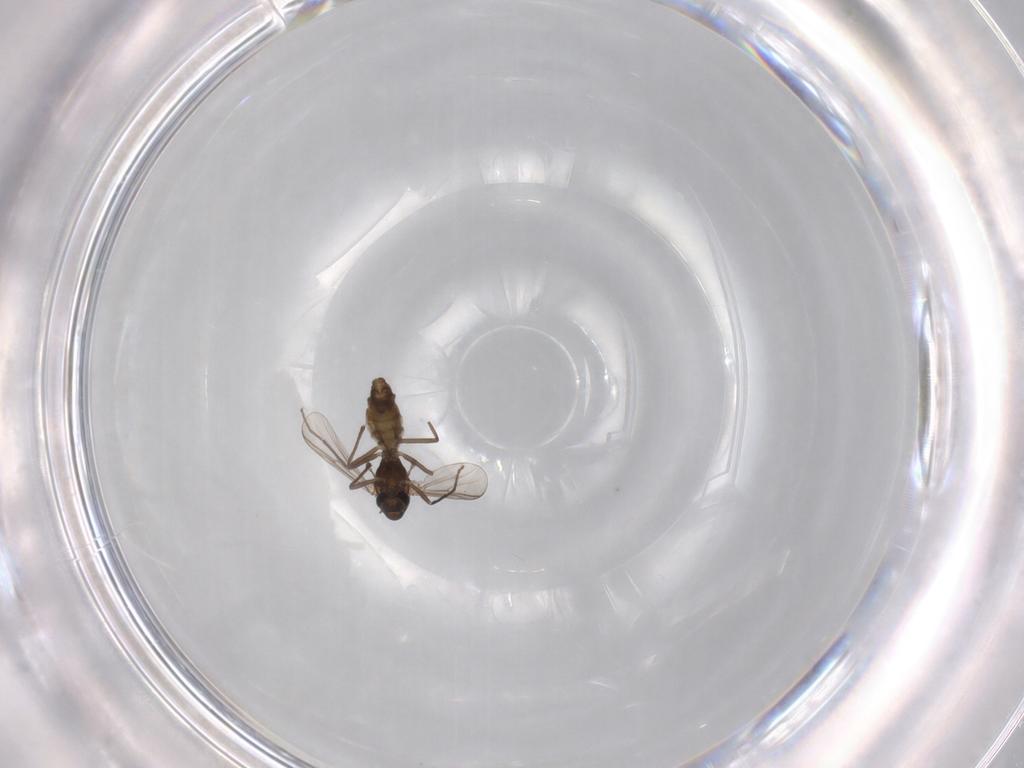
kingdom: Animalia
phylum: Arthropoda
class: Insecta
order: Diptera
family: Chironomidae
